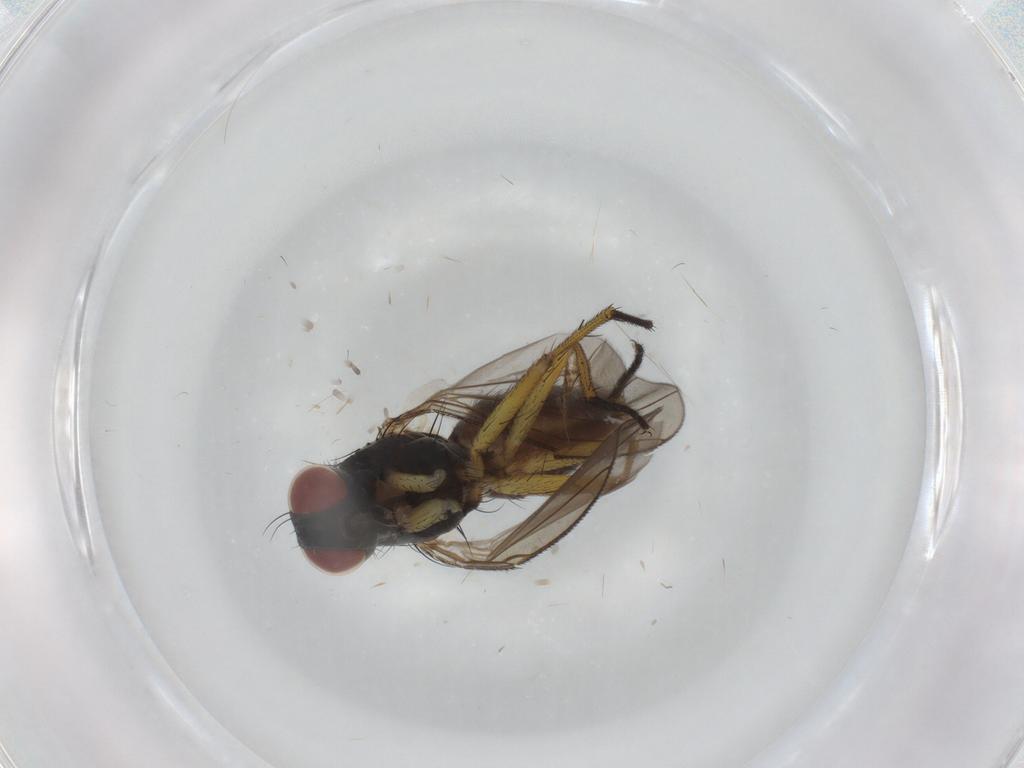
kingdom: Animalia
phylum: Arthropoda
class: Insecta
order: Diptera
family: Muscidae
